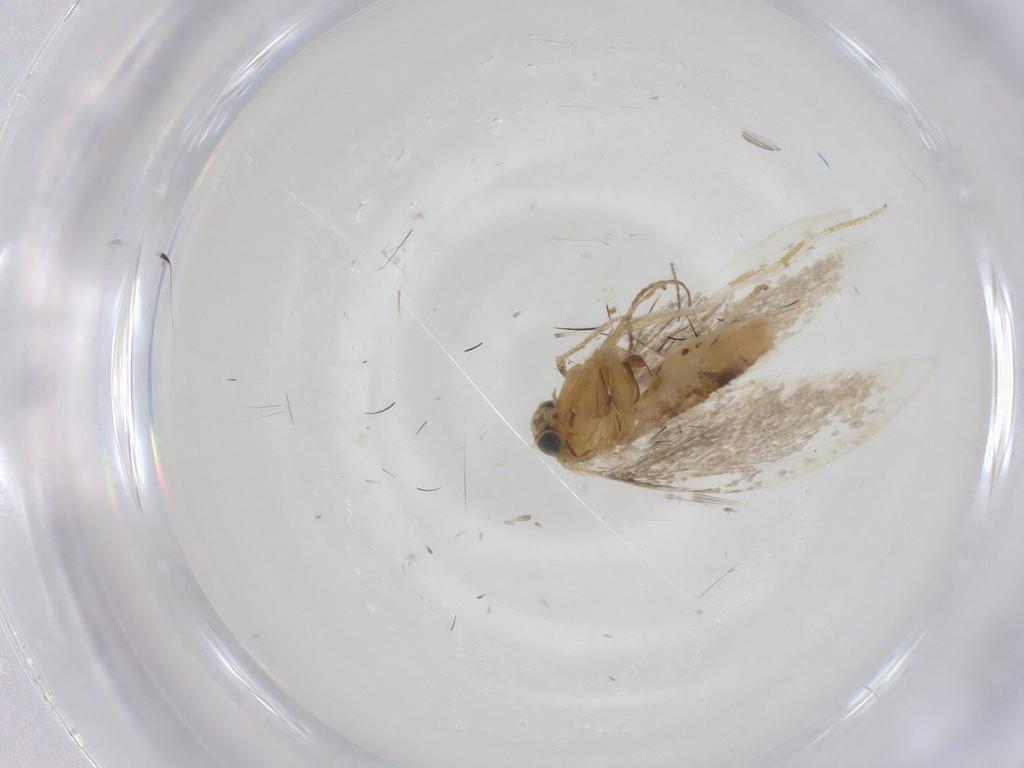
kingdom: Animalia
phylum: Arthropoda
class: Insecta
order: Lepidoptera
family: Argyresthiidae
